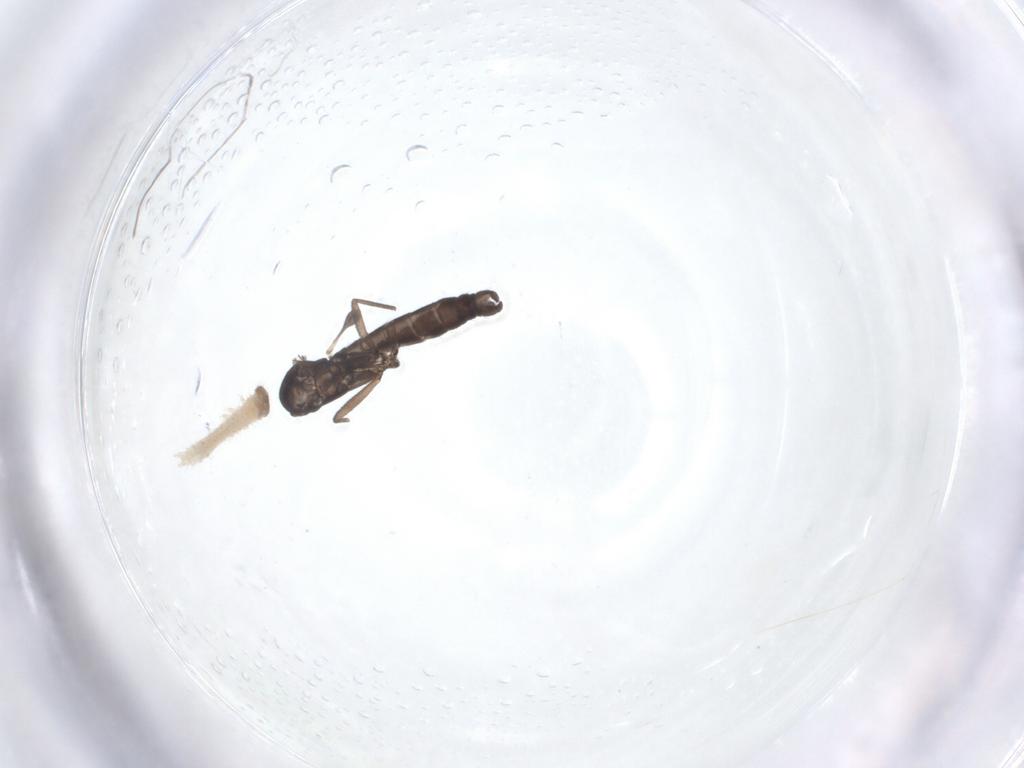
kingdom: Animalia
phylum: Arthropoda
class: Insecta
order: Diptera
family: Sciaridae
